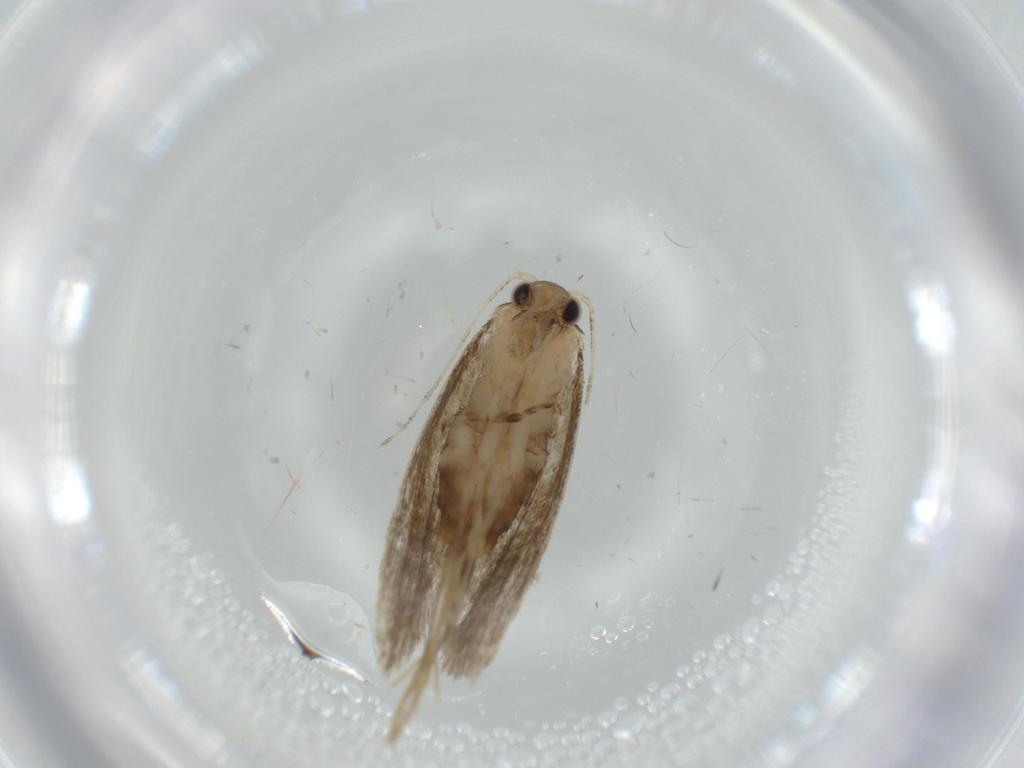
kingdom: Animalia
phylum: Arthropoda
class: Insecta
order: Lepidoptera
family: Tineidae
